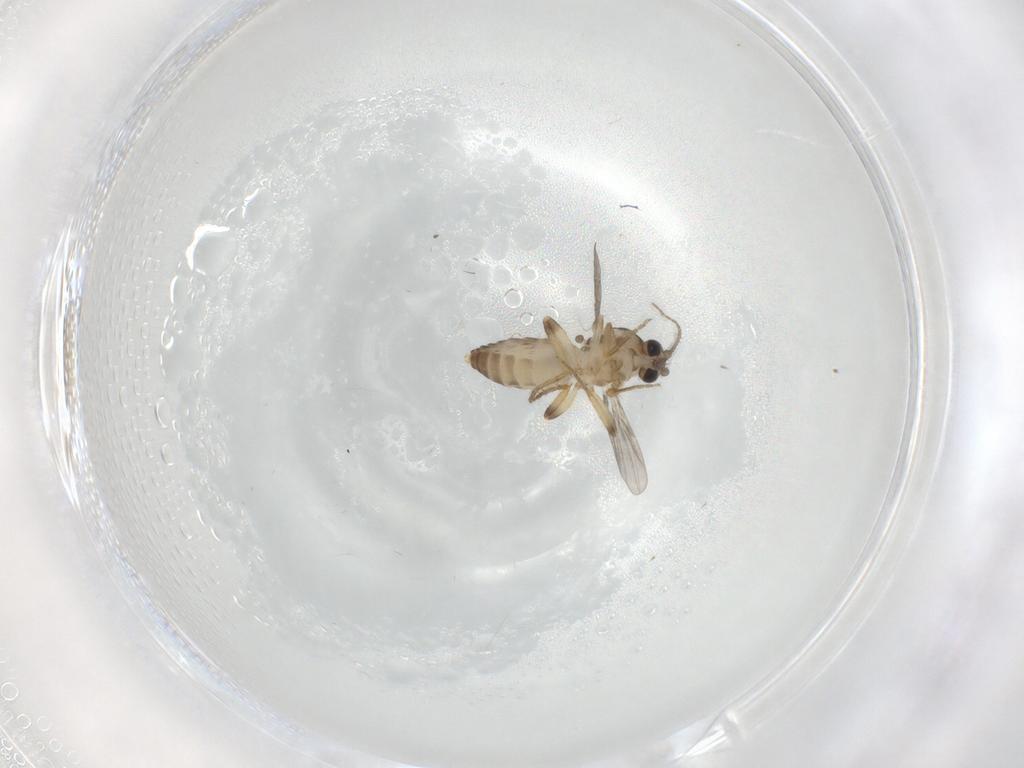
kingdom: Animalia
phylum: Arthropoda
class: Insecta
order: Diptera
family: Ceratopogonidae
